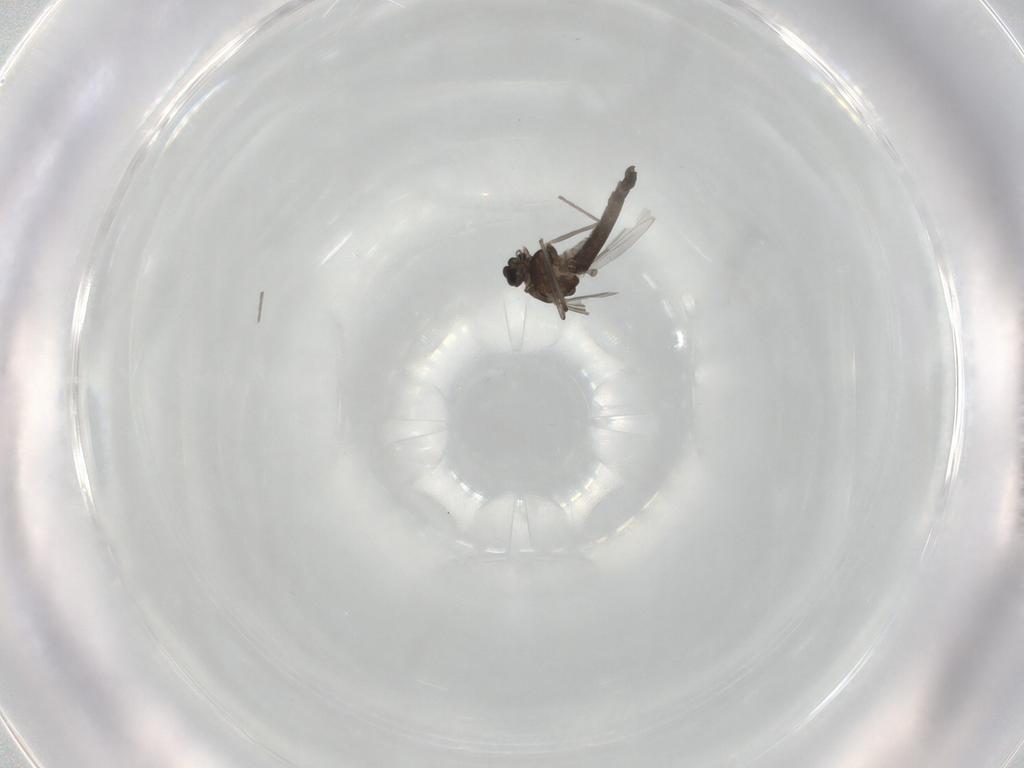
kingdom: Animalia
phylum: Arthropoda
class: Insecta
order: Diptera
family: Chironomidae
